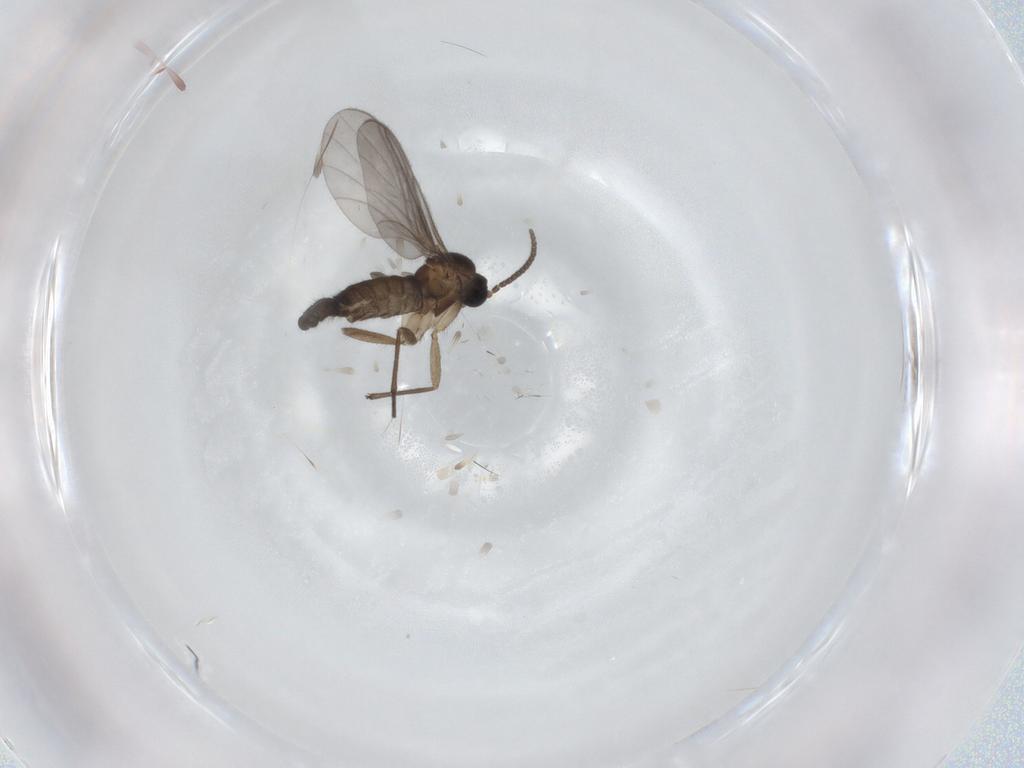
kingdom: Animalia
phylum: Arthropoda
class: Insecta
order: Diptera
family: Sciaridae
